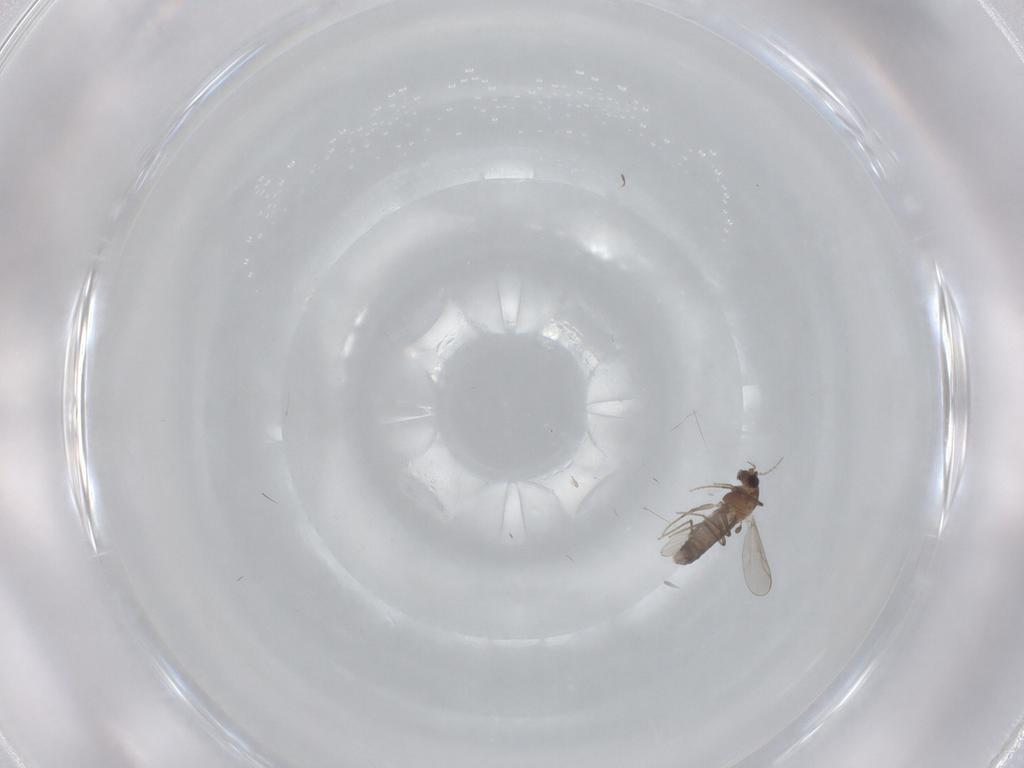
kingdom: Animalia
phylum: Arthropoda
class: Insecta
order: Diptera
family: Chironomidae
